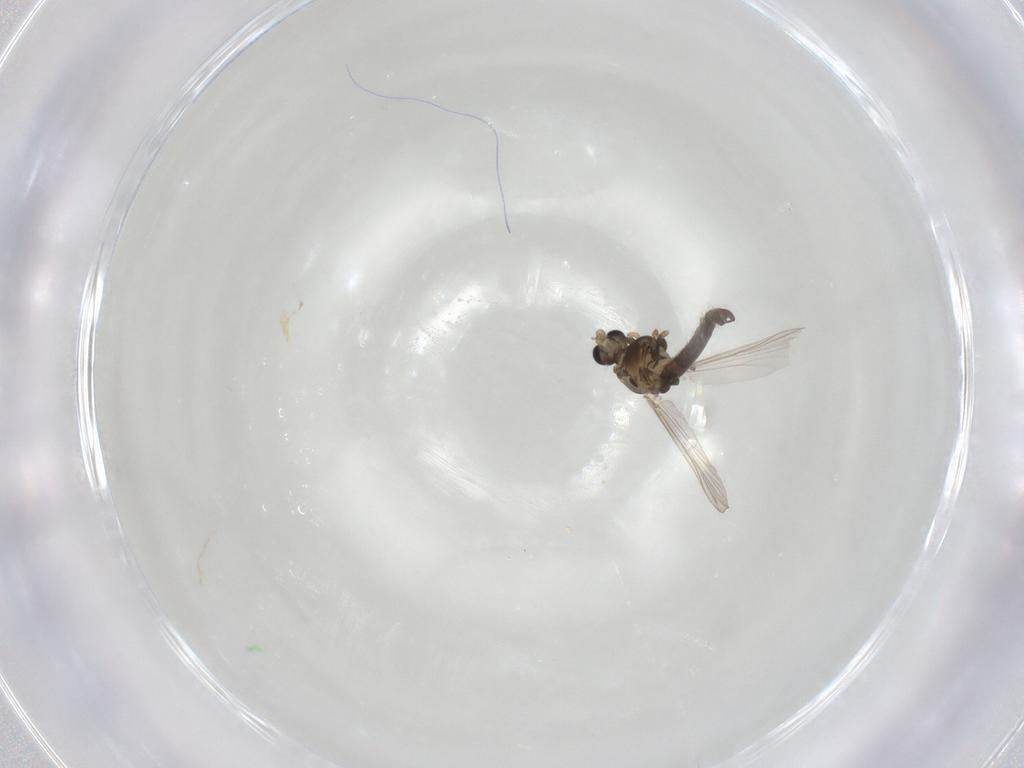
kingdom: Animalia
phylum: Arthropoda
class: Insecta
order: Diptera
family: Chironomidae
